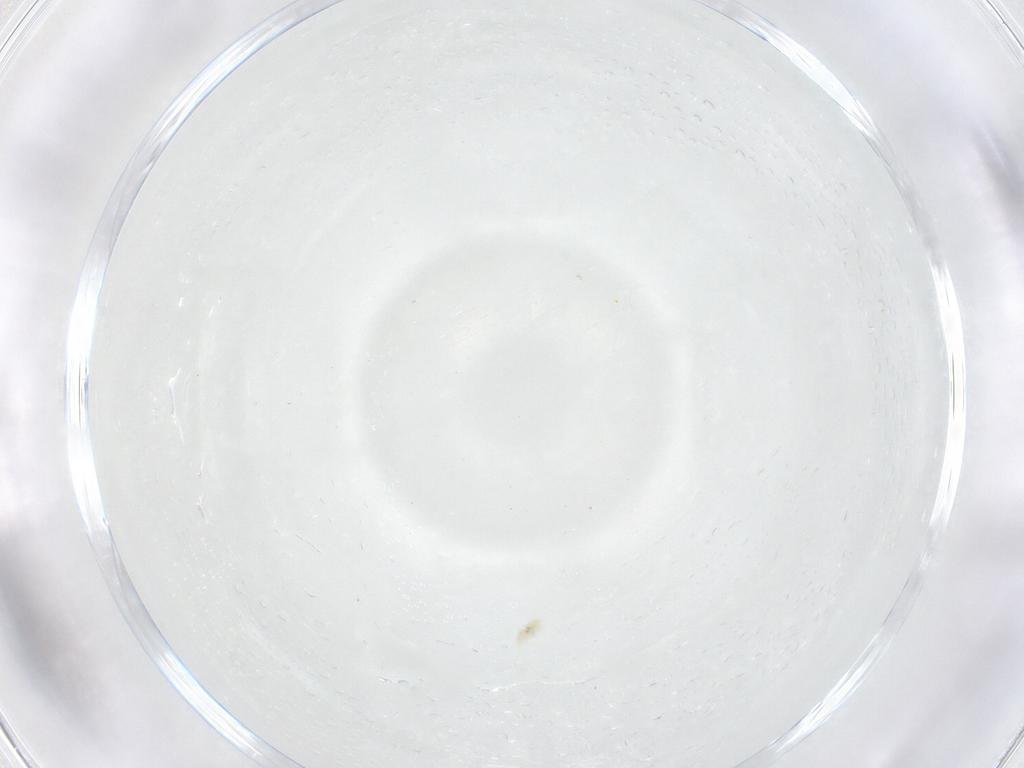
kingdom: Animalia
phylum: Arthropoda
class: Arachnida
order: Trombidiformes
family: Eupodidae
